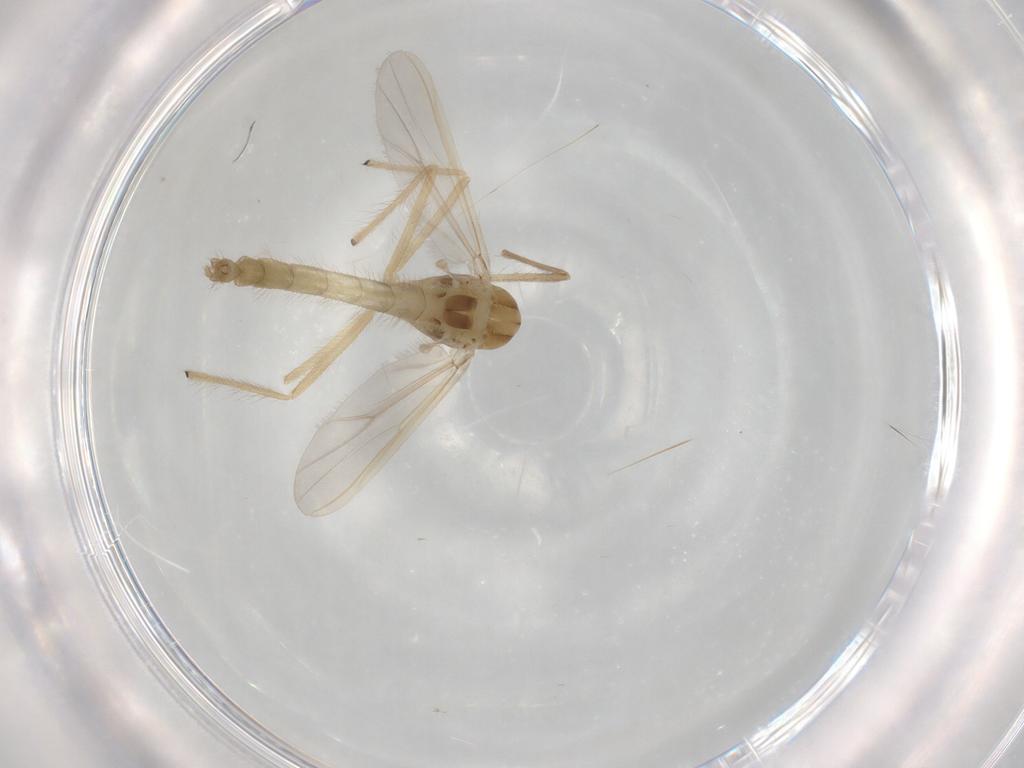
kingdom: Animalia
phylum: Arthropoda
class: Insecta
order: Diptera
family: Chironomidae
